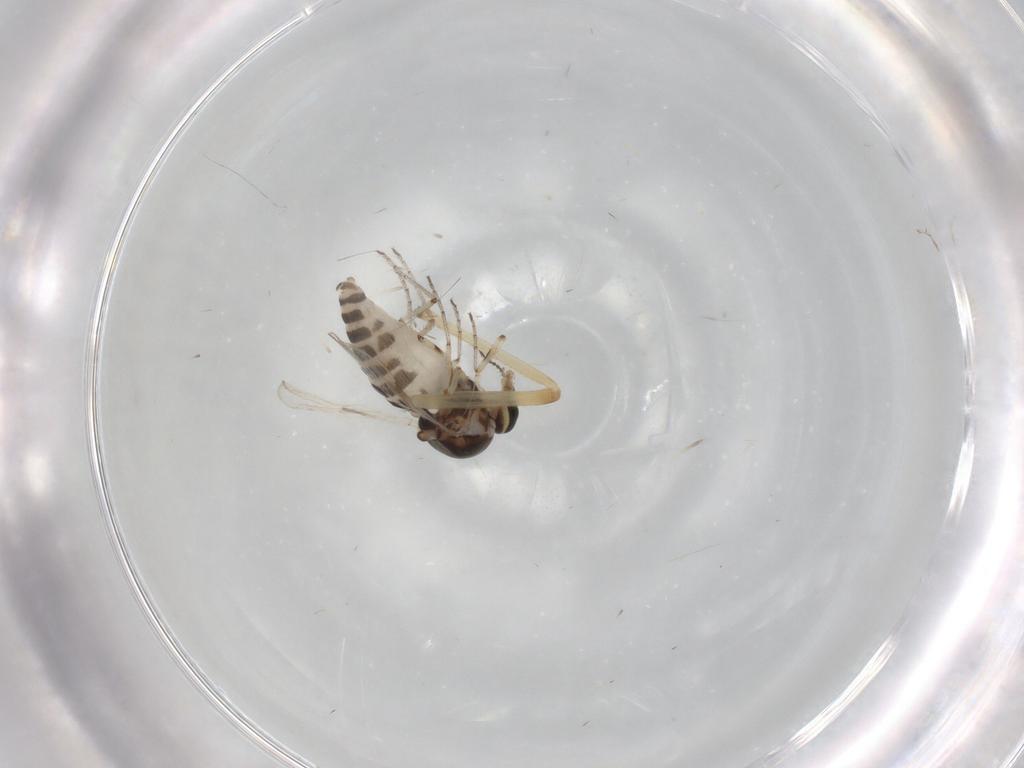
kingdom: Animalia
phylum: Arthropoda
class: Insecta
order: Diptera
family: Ceratopogonidae
